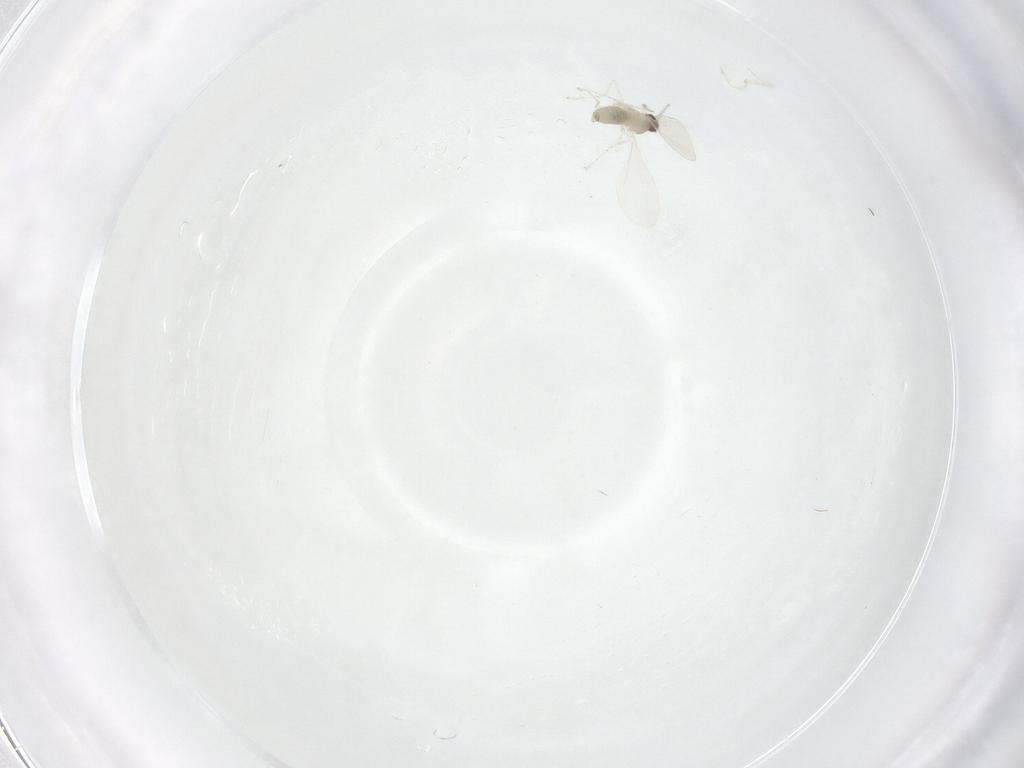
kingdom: Animalia
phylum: Arthropoda
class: Insecta
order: Diptera
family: Cecidomyiidae
